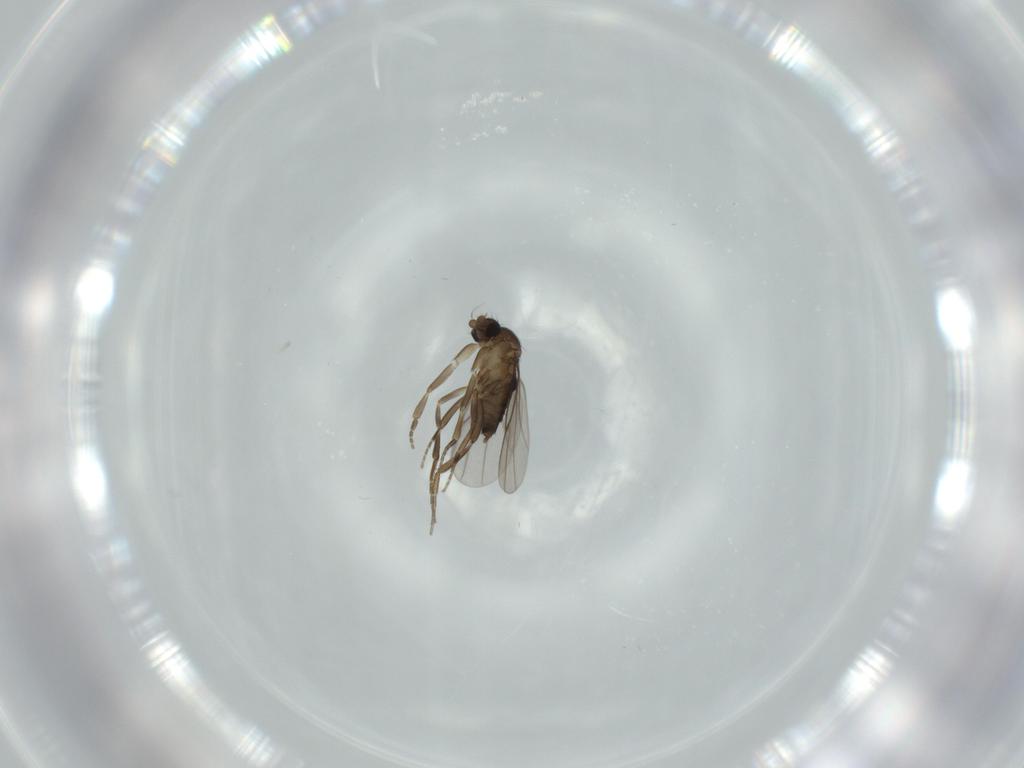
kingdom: Animalia
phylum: Arthropoda
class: Insecta
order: Diptera
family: Phoridae
